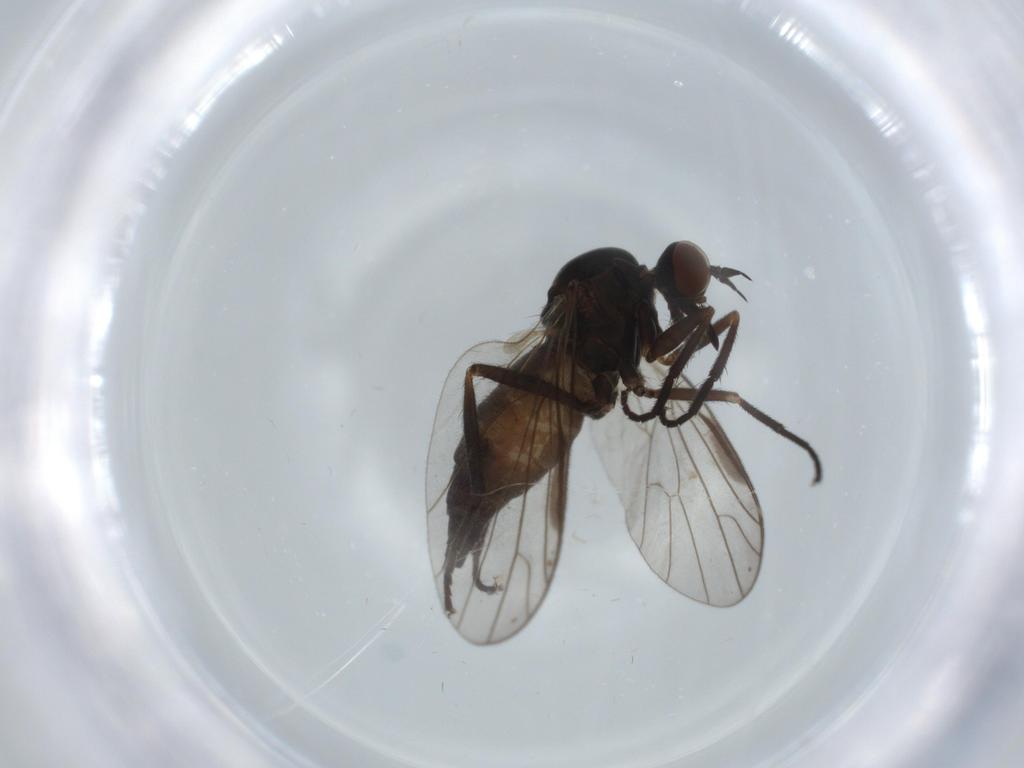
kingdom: Animalia
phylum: Arthropoda
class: Insecta
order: Diptera
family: Empididae
